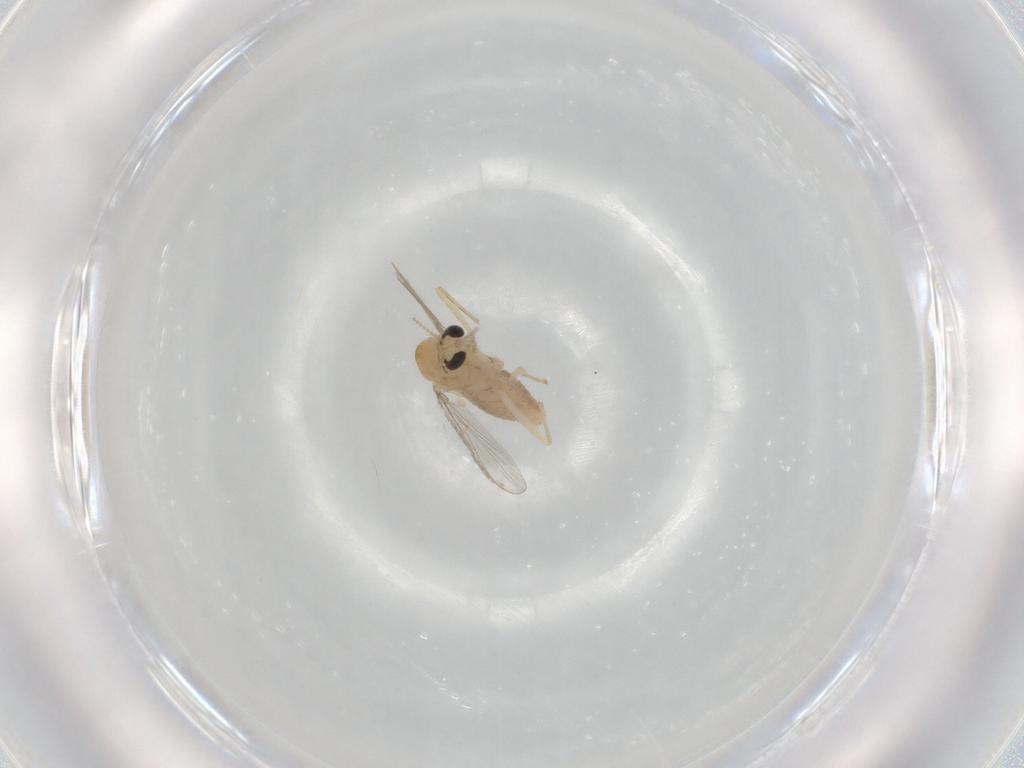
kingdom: Animalia
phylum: Arthropoda
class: Insecta
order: Diptera
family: Chironomidae
